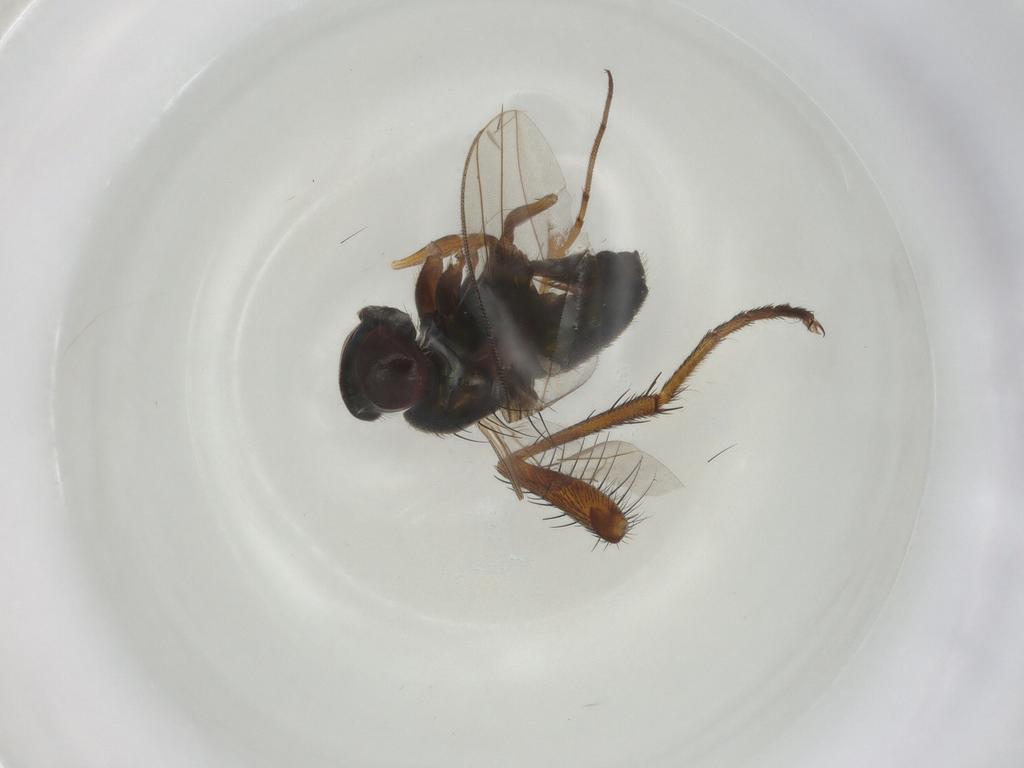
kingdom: Animalia
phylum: Arthropoda
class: Insecta
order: Diptera
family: Dolichopodidae
